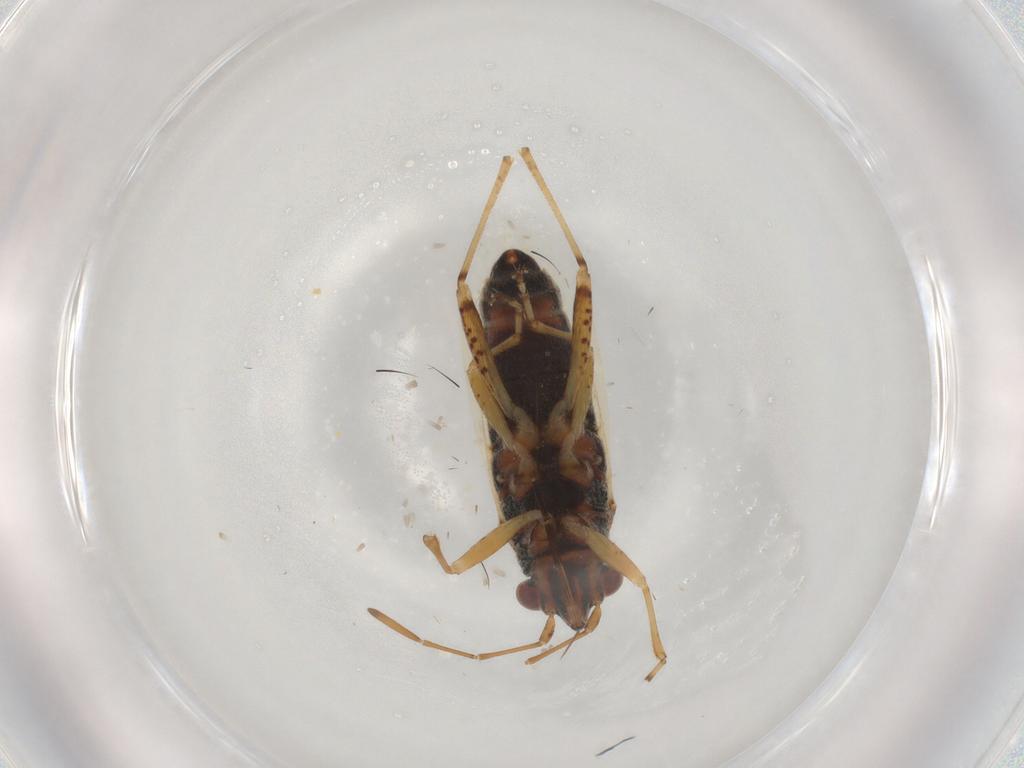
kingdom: Animalia
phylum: Arthropoda
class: Insecta
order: Hemiptera
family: Lygaeidae
